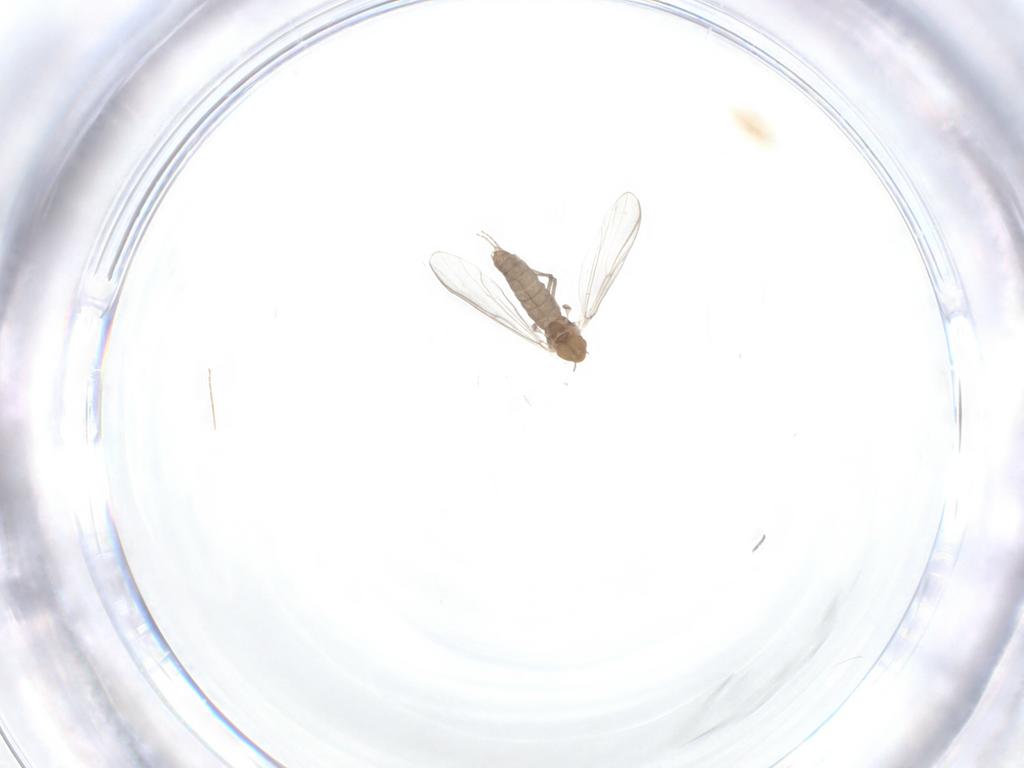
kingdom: Animalia
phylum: Arthropoda
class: Insecta
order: Diptera
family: Chironomidae
